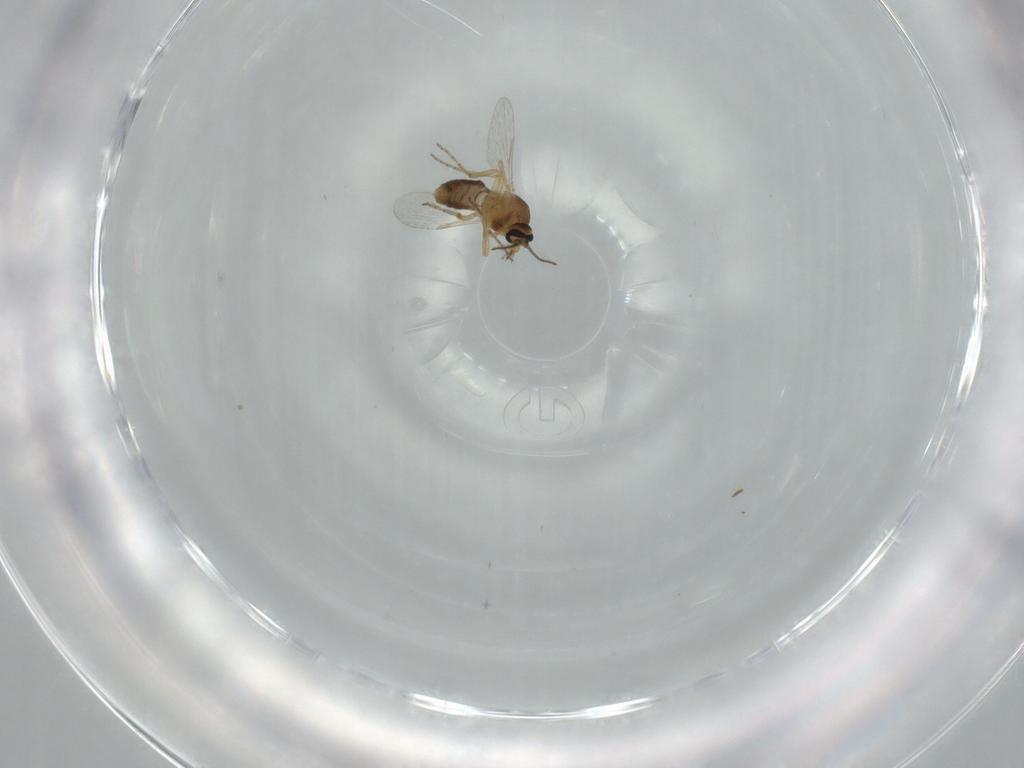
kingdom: Animalia
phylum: Arthropoda
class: Insecta
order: Diptera
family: Ceratopogonidae
